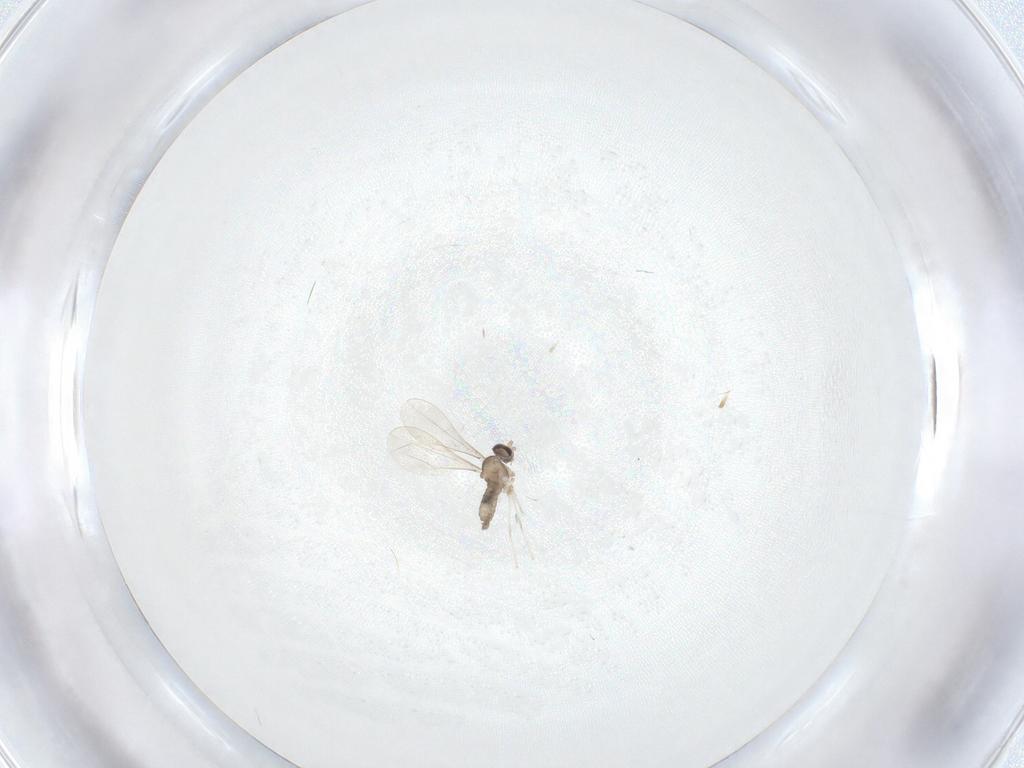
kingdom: Animalia
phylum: Arthropoda
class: Insecta
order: Diptera
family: Cecidomyiidae
